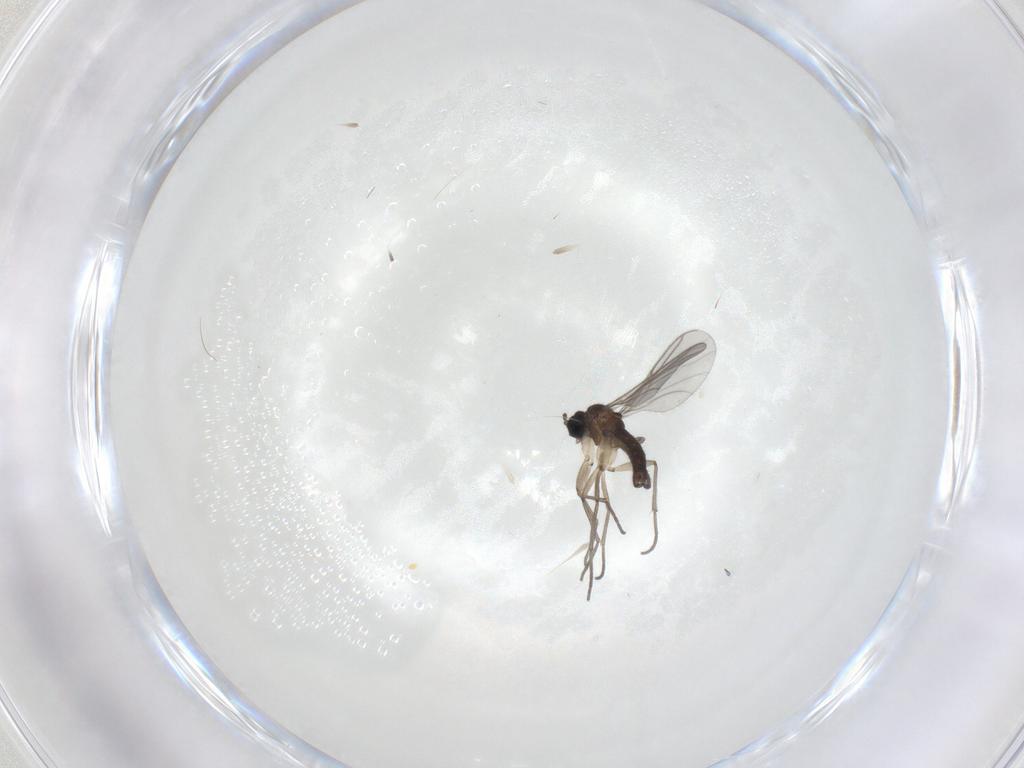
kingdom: Animalia
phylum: Arthropoda
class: Insecta
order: Diptera
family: Sciaridae
